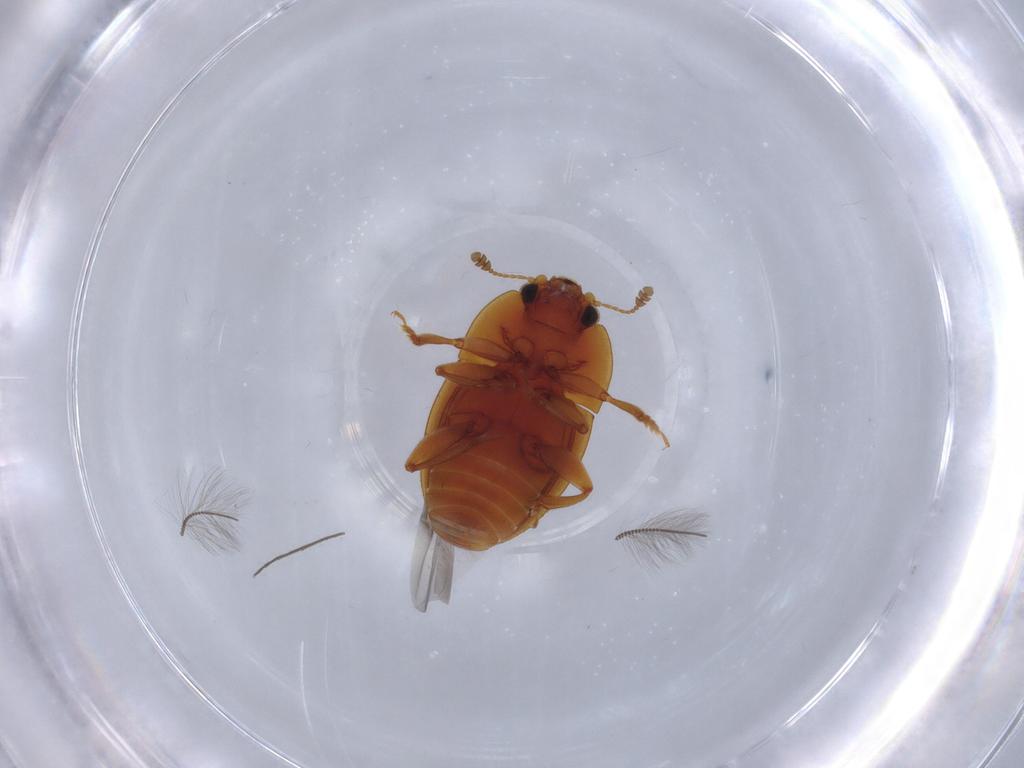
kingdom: Animalia
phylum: Arthropoda
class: Insecta
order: Coleoptera
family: Nitidulidae
